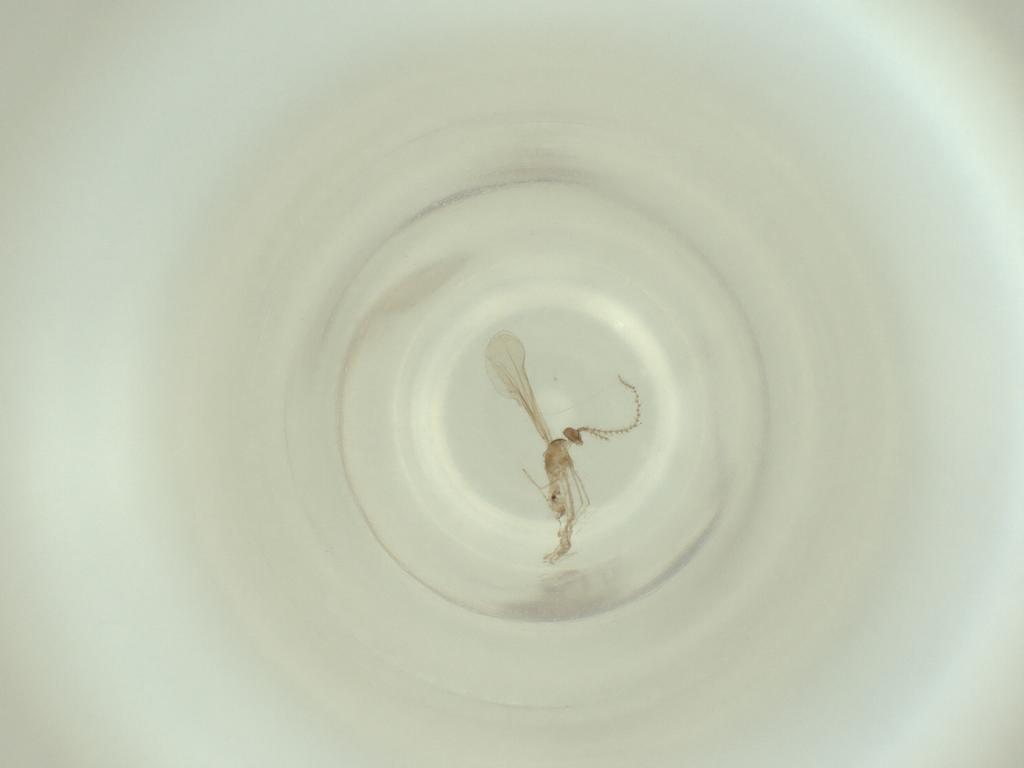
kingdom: Animalia
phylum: Arthropoda
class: Insecta
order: Diptera
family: Cecidomyiidae
